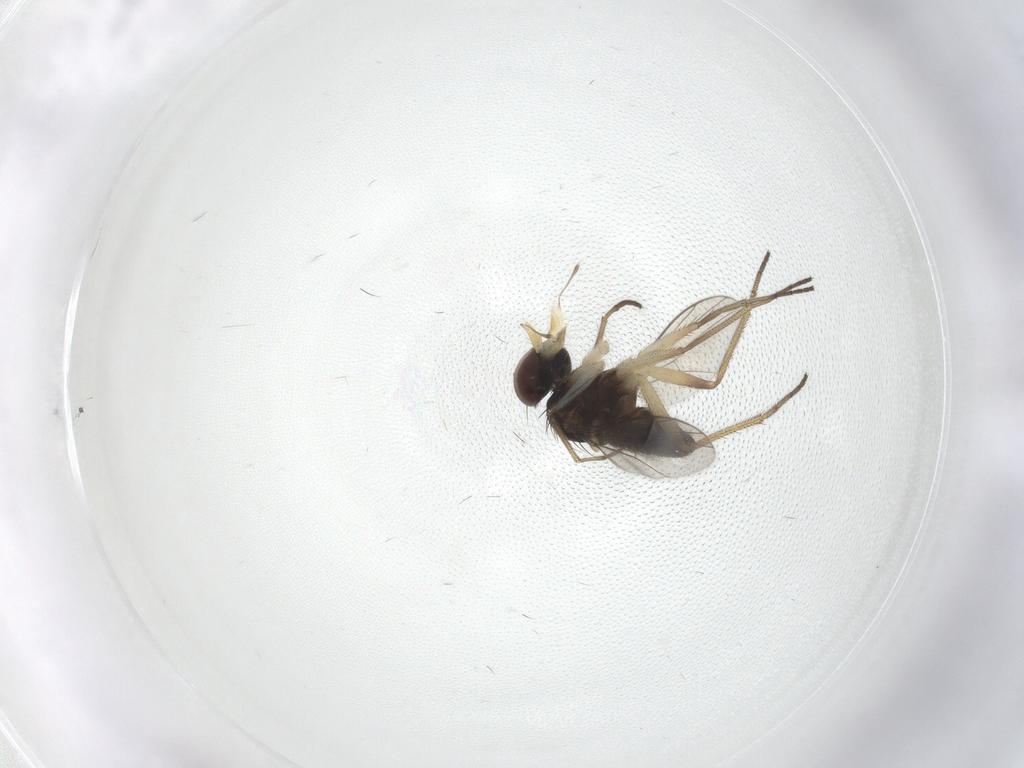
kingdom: Animalia
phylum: Arthropoda
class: Insecta
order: Diptera
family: Dolichopodidae
